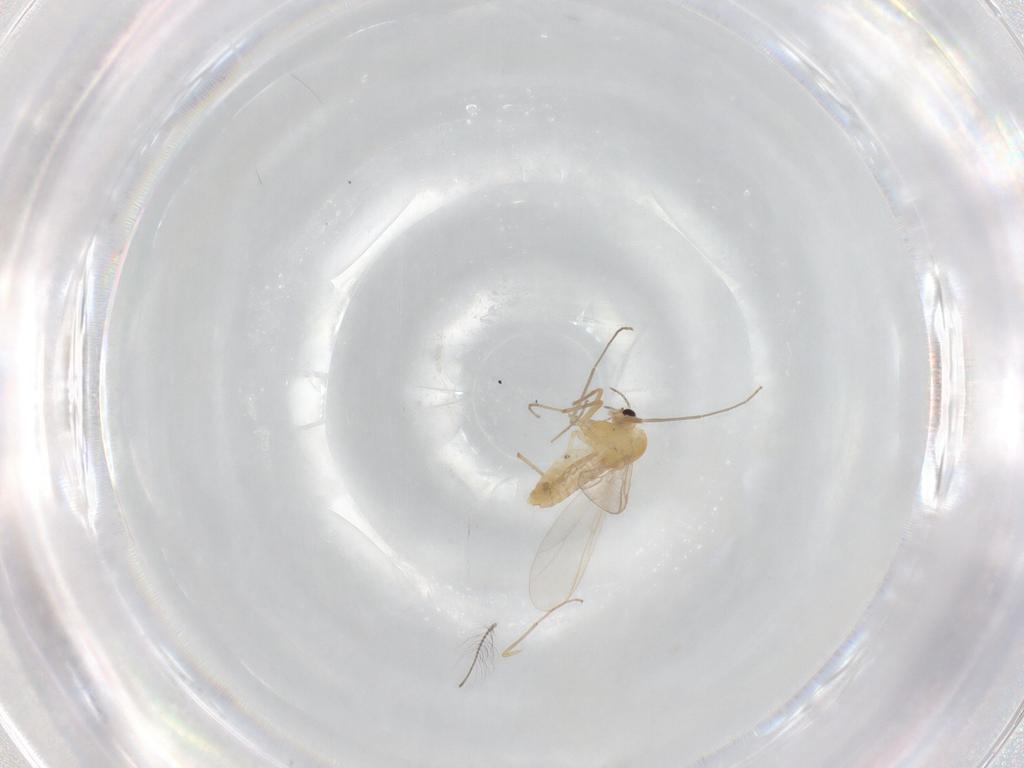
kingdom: Animalia
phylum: Arthropoda
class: Insecta
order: Diptera
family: Chironomidae
